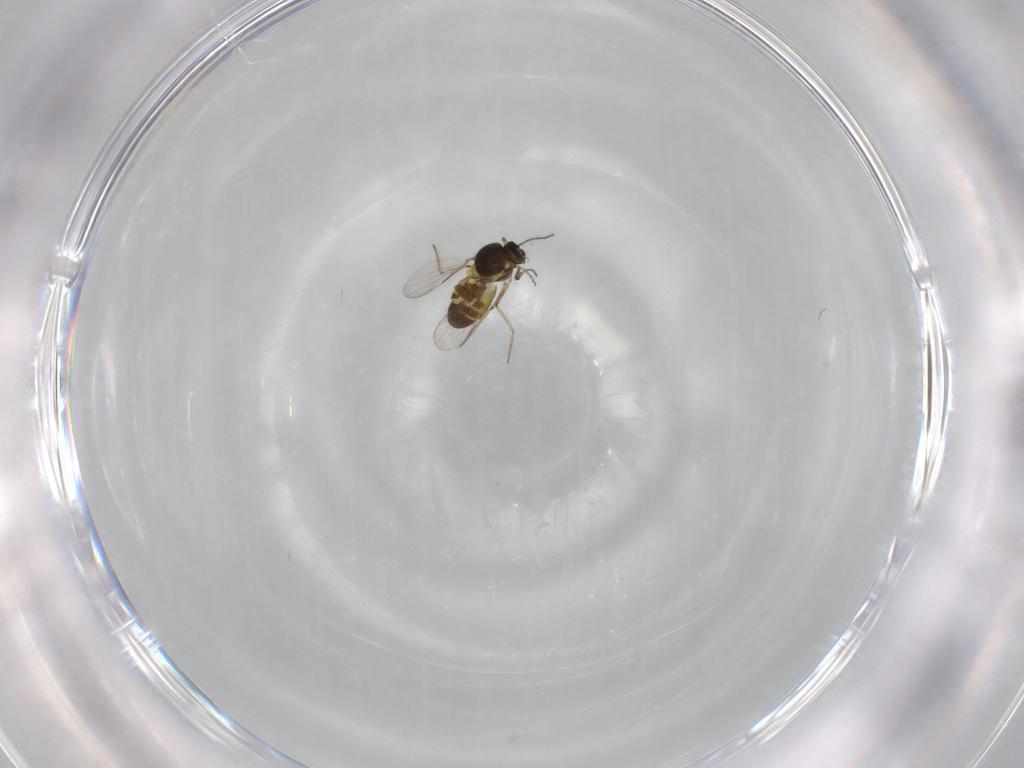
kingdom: Animalia
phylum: Arthropoda
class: Insecta
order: Diptera
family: Ceratopogonidae
